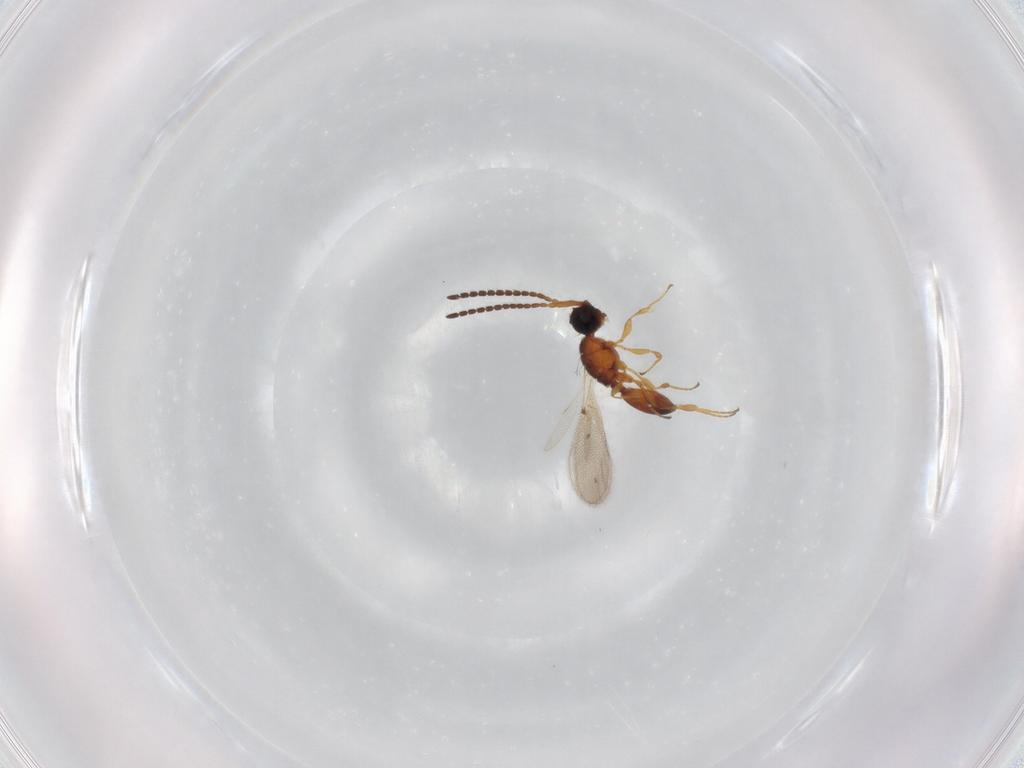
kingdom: Animalia
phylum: Arthropoda
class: Insecta
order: Hymenoptera
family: Diapriidae
